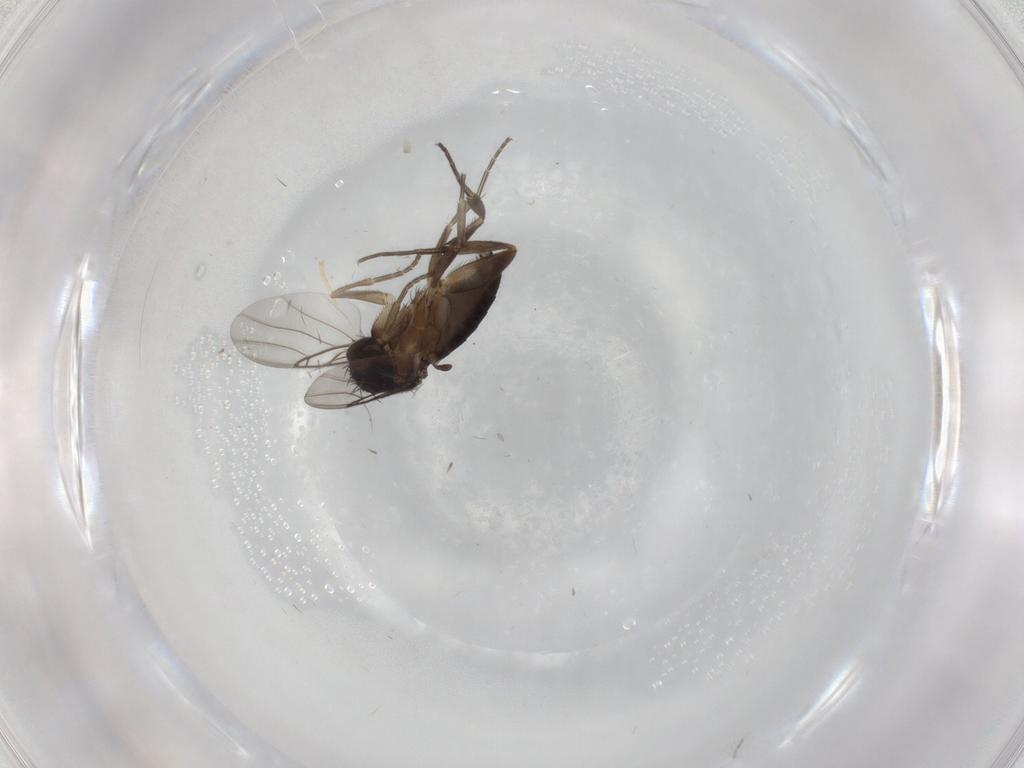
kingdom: Animalia
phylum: Arthropoda
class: Insecta
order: Diptera
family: Phoridae
